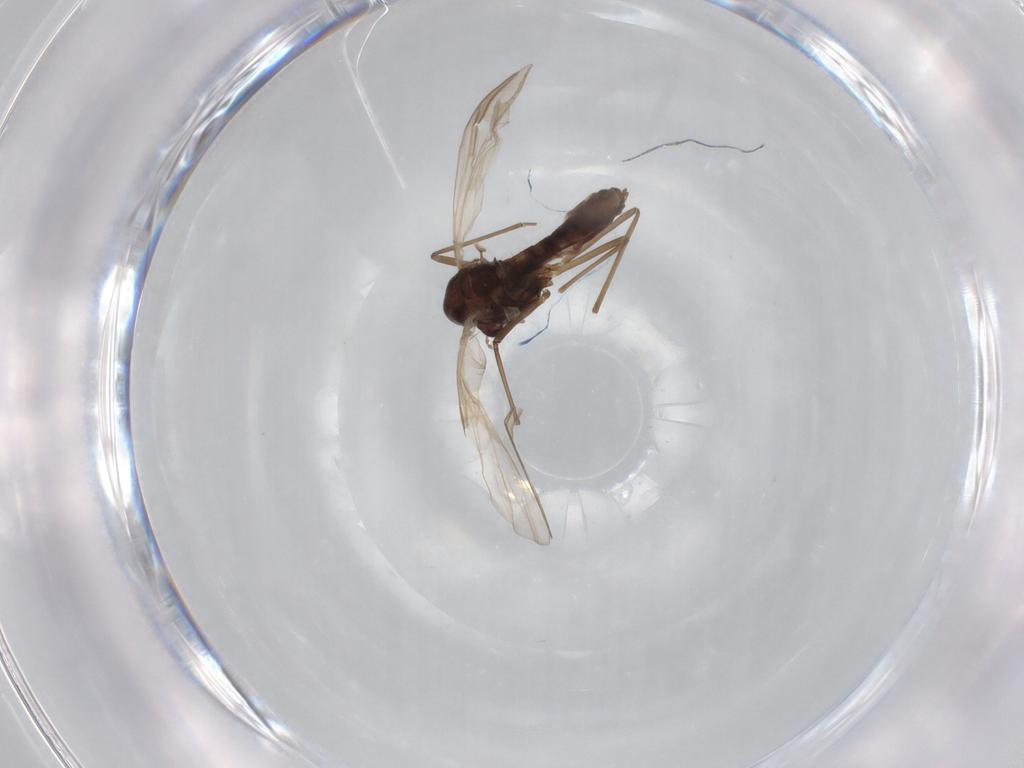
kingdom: Animalia
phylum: Arthropoda
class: Insecta
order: Diptera
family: Chironomidae
